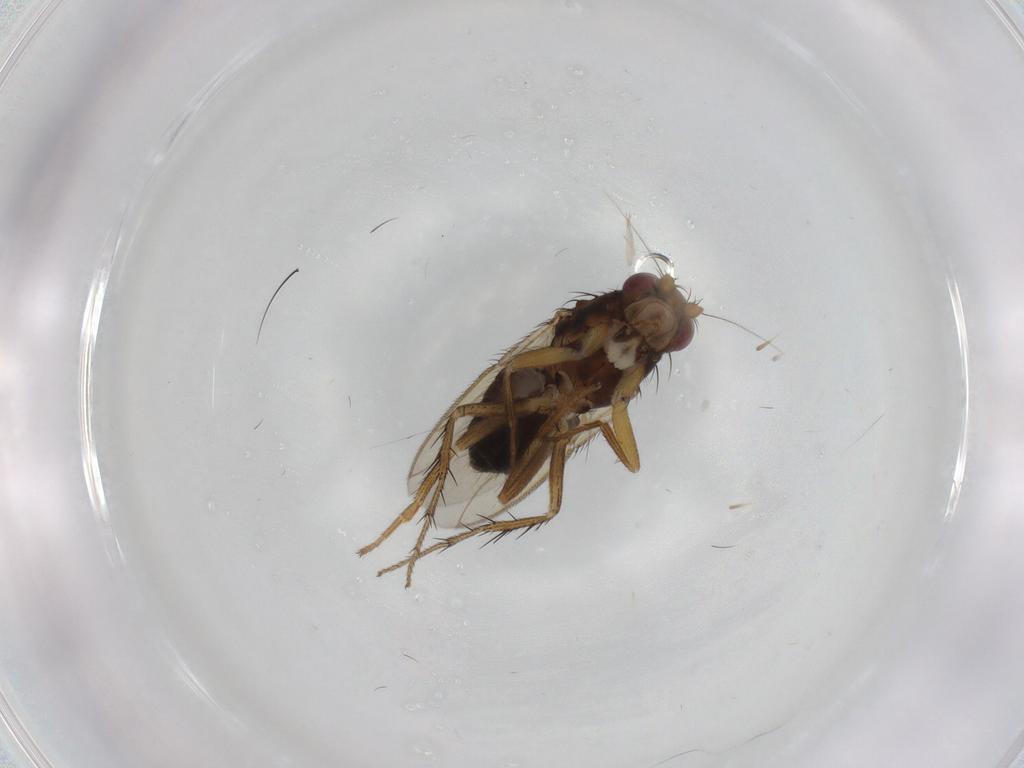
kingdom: Animalia
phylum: Arthropoda
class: Insecta
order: Diptera
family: Sphaeroceridae
